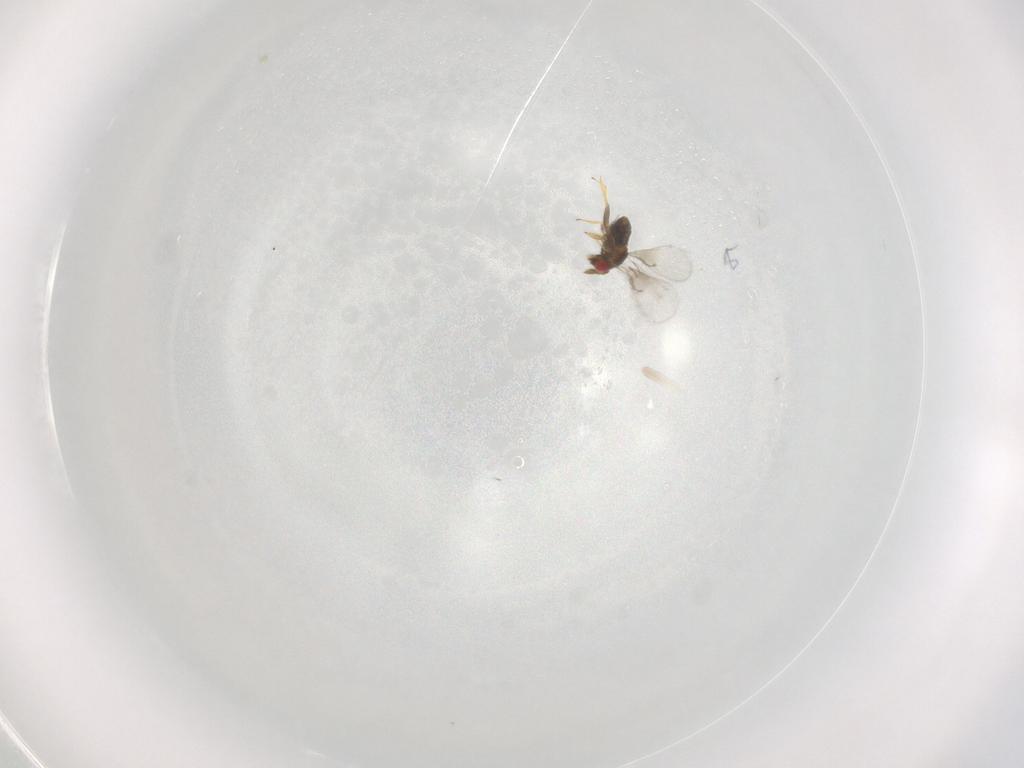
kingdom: Animalia
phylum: Arthropoda
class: Insecta
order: Hymenoptera
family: Trichogrammatidae
